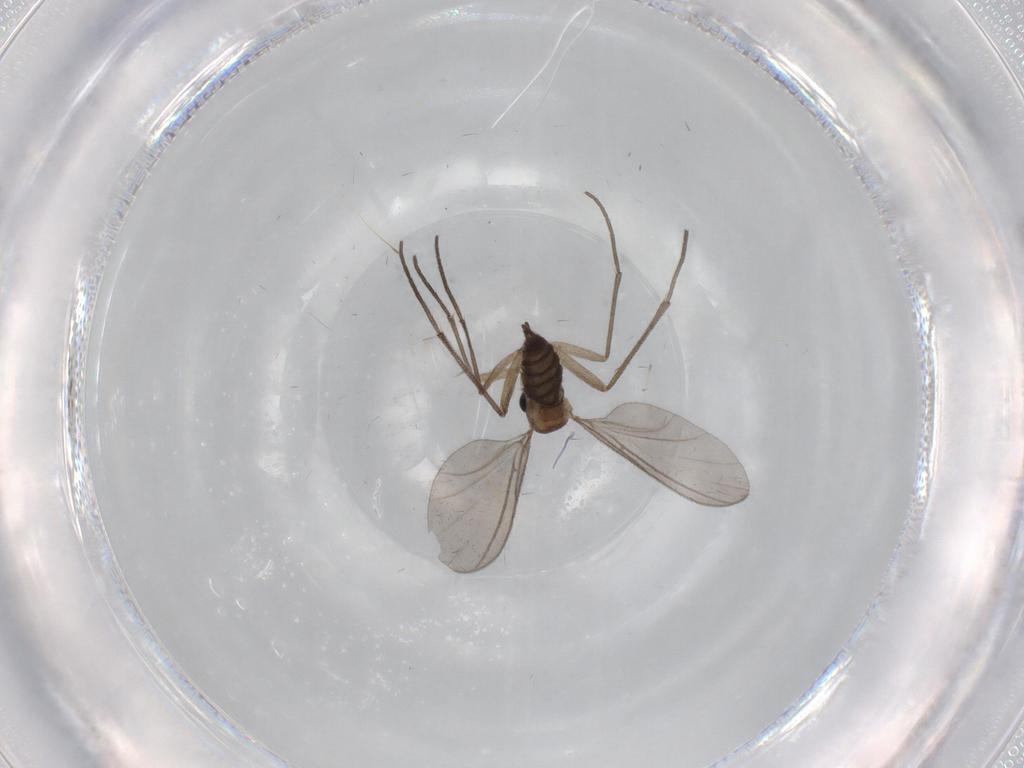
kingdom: Animalia
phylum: Arthropoda
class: Insecta
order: Diptera
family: Sciaridae
